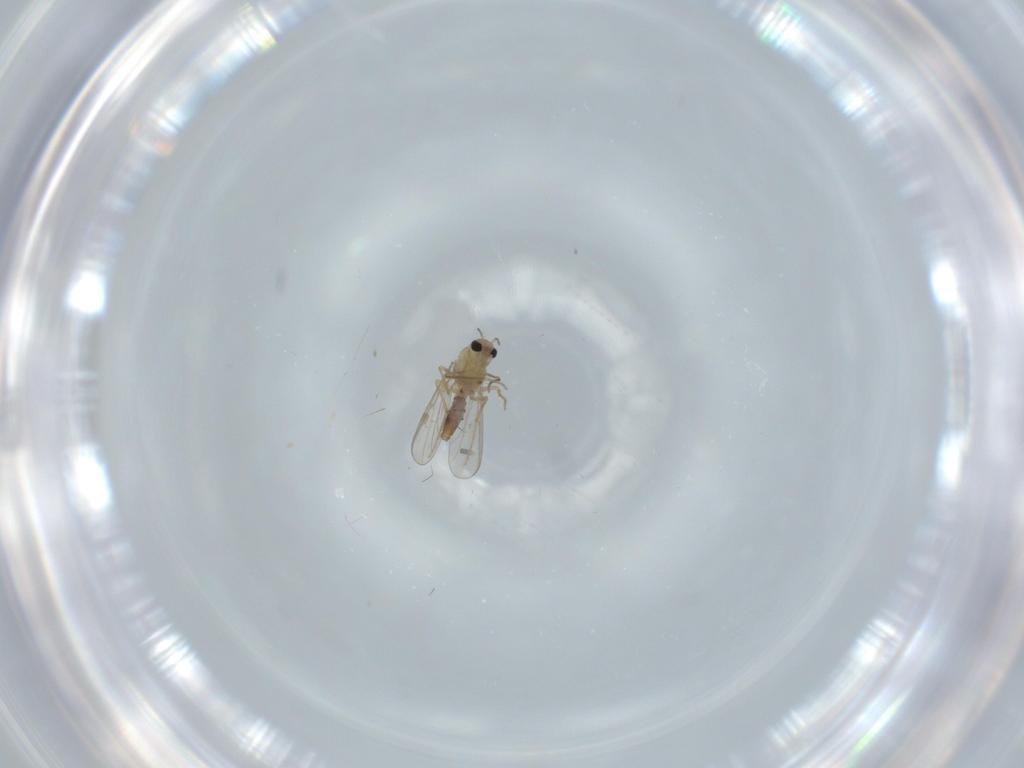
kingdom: Animalia
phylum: Arthropoda
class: Insecta
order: Diptera
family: Chironomidae
